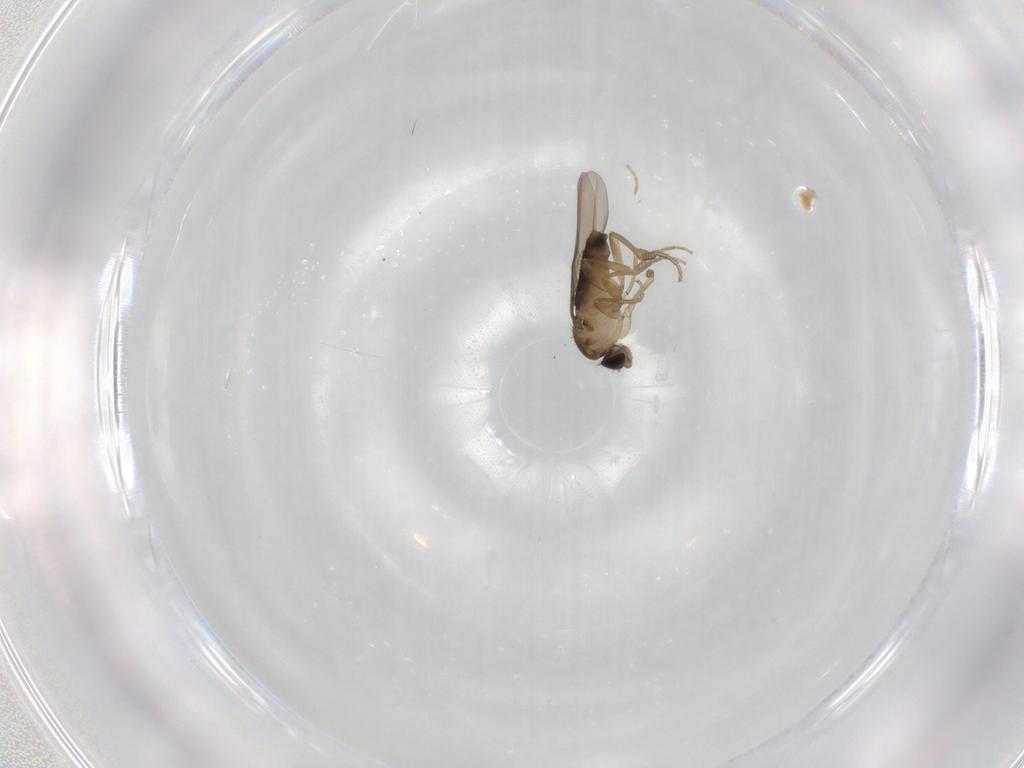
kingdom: Animalia
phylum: Arthropoda
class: Insecta
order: Diptera
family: Phoridae
